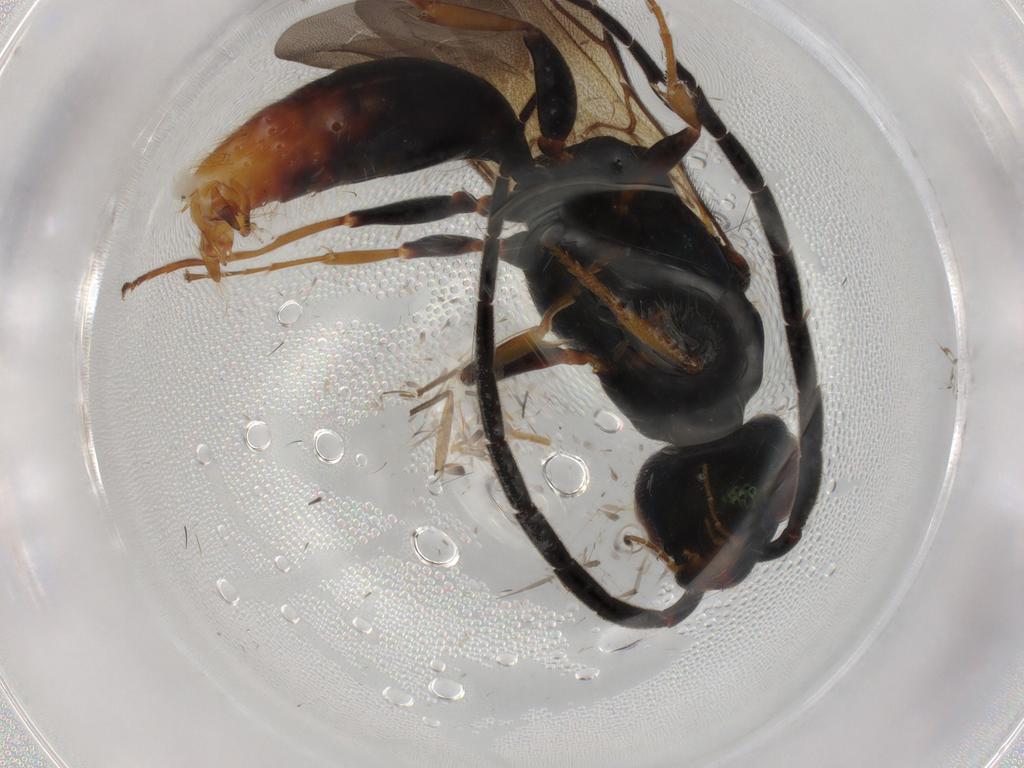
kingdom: Animalia
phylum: Arthropoda
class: Insecta
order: Hymenoptera
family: Bethylidae
